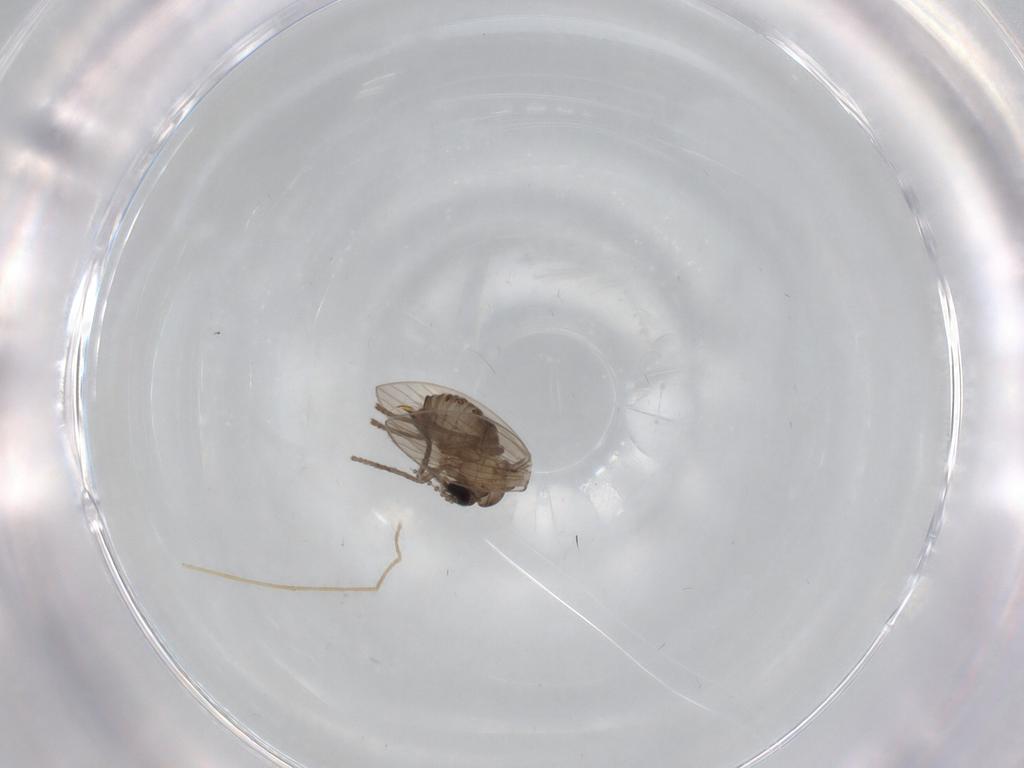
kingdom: Animalia
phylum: Arthropoda
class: Insecta
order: Diptera
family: Psychodidae
